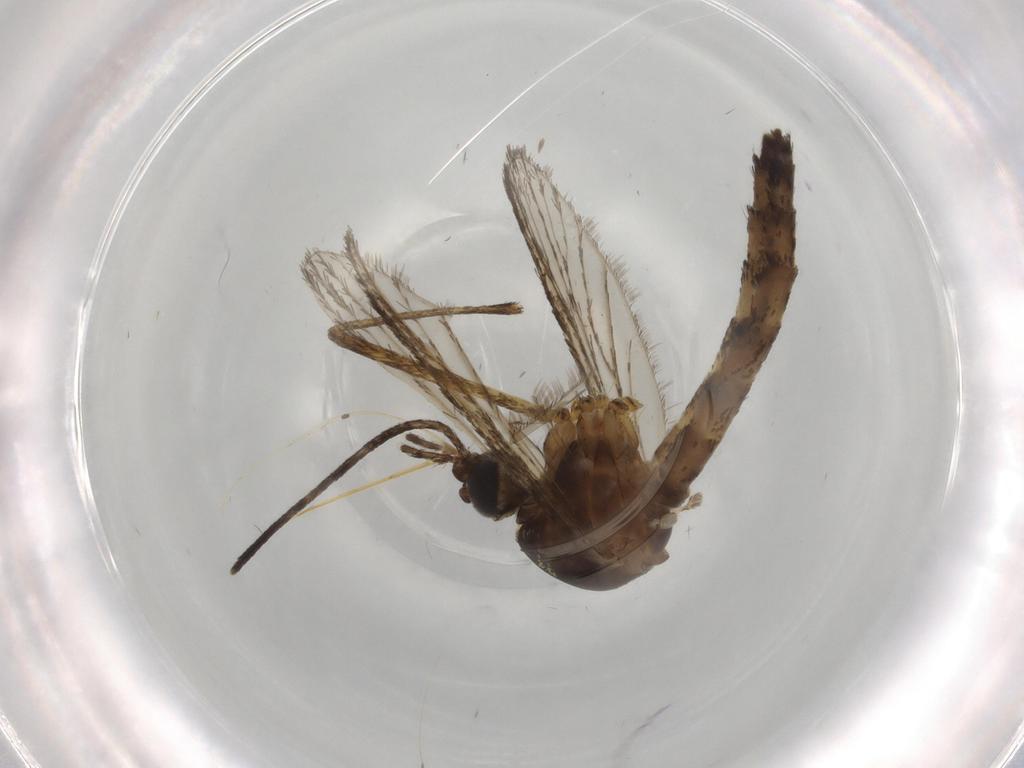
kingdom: Animalia
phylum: Arthropoda
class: Insecta
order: Diptera
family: Culicidae
